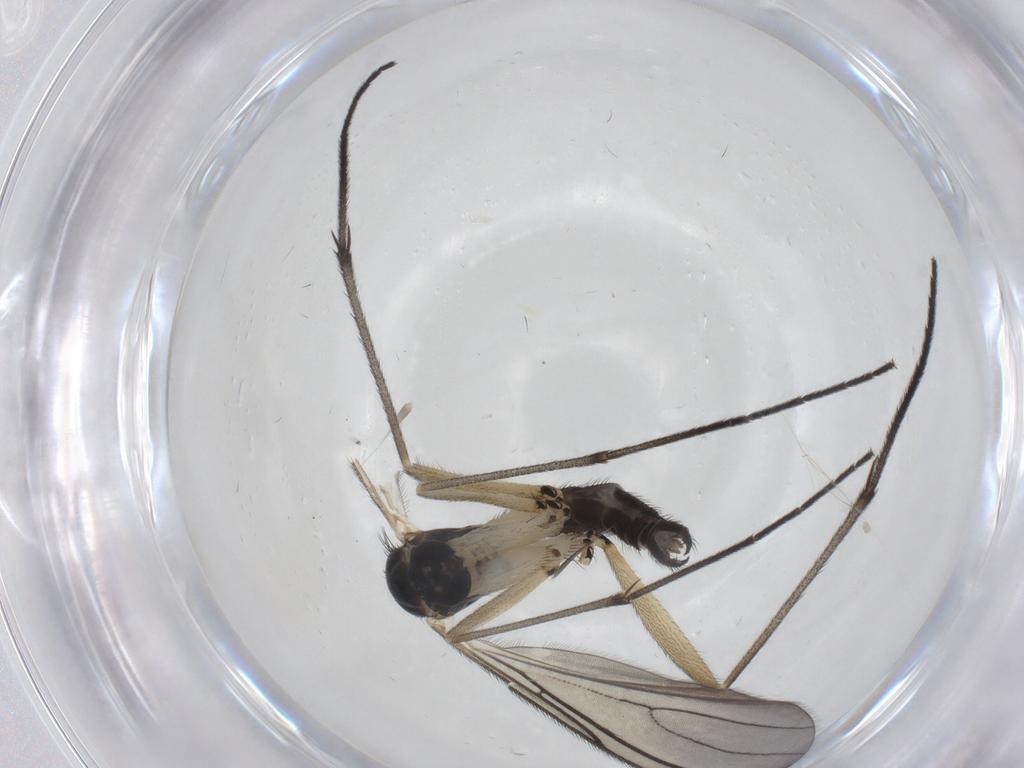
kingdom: Animalia
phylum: Arthropoda
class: Insecta
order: Diptera
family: Sciaridae
